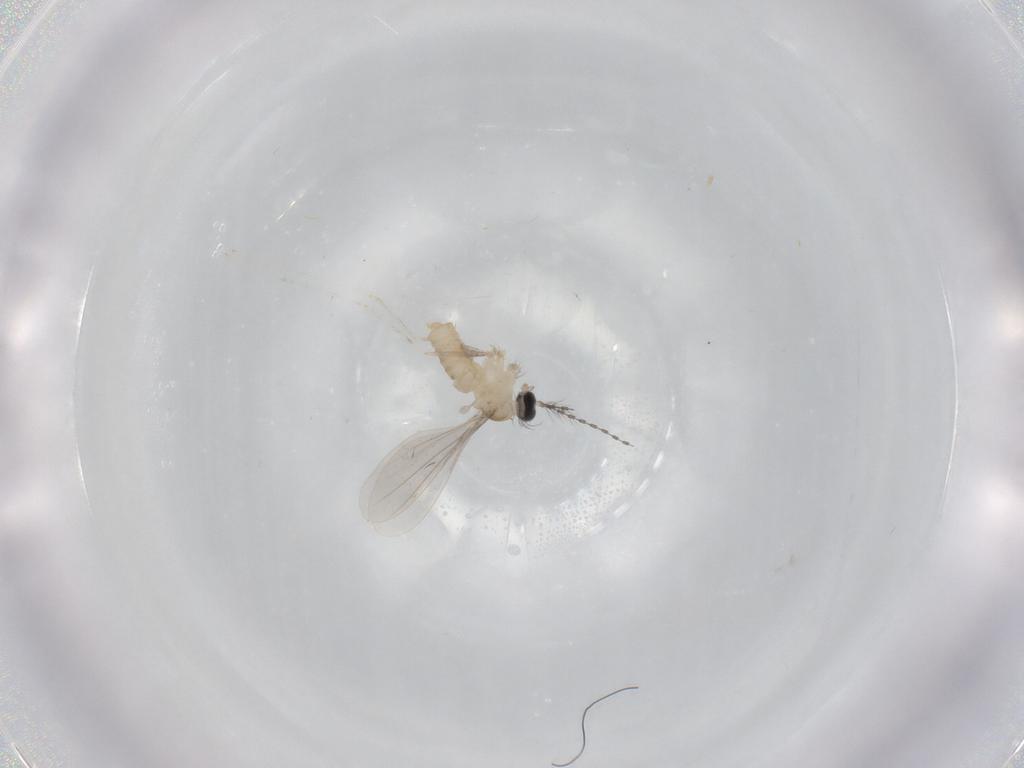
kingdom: Animalia
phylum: Arthropoda
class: Insecta
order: Diptera
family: Cecidomyiidae
